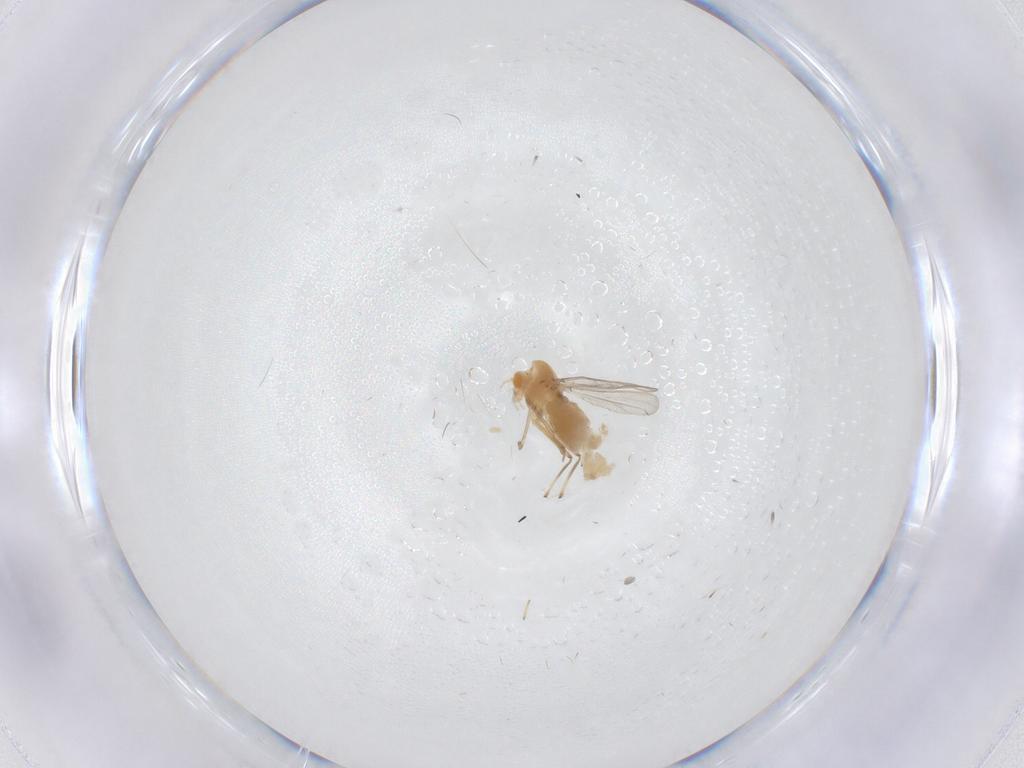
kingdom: Animalia
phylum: Arthropoda
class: Insecta
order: Diptera
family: Chironomidae
